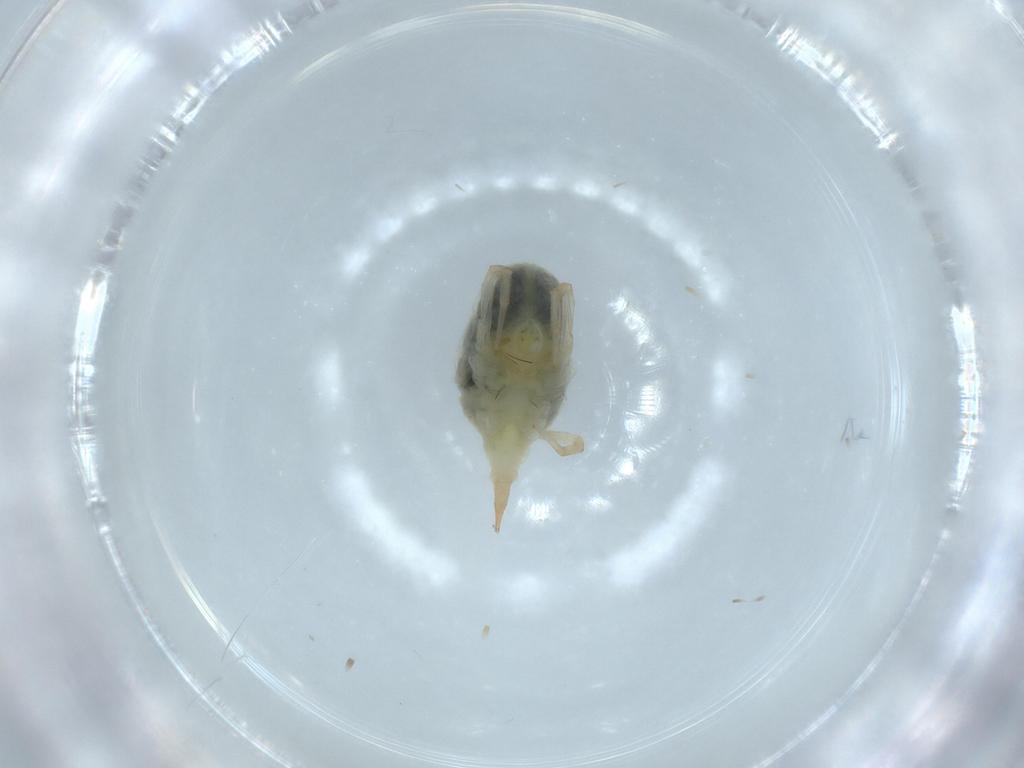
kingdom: Animalia
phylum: Arthropoda
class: Arachnida
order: Trombidiformes
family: Bdellidae
